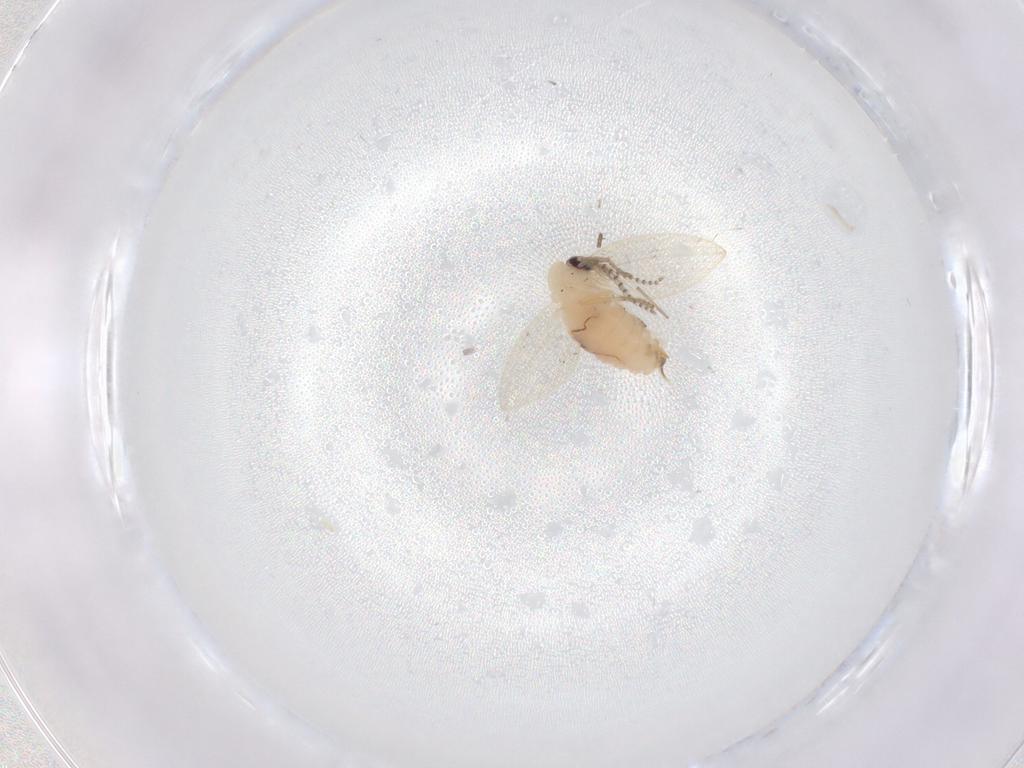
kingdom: Animalia
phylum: Arthropoda
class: Insecta
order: Diptera
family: Psychodidae
